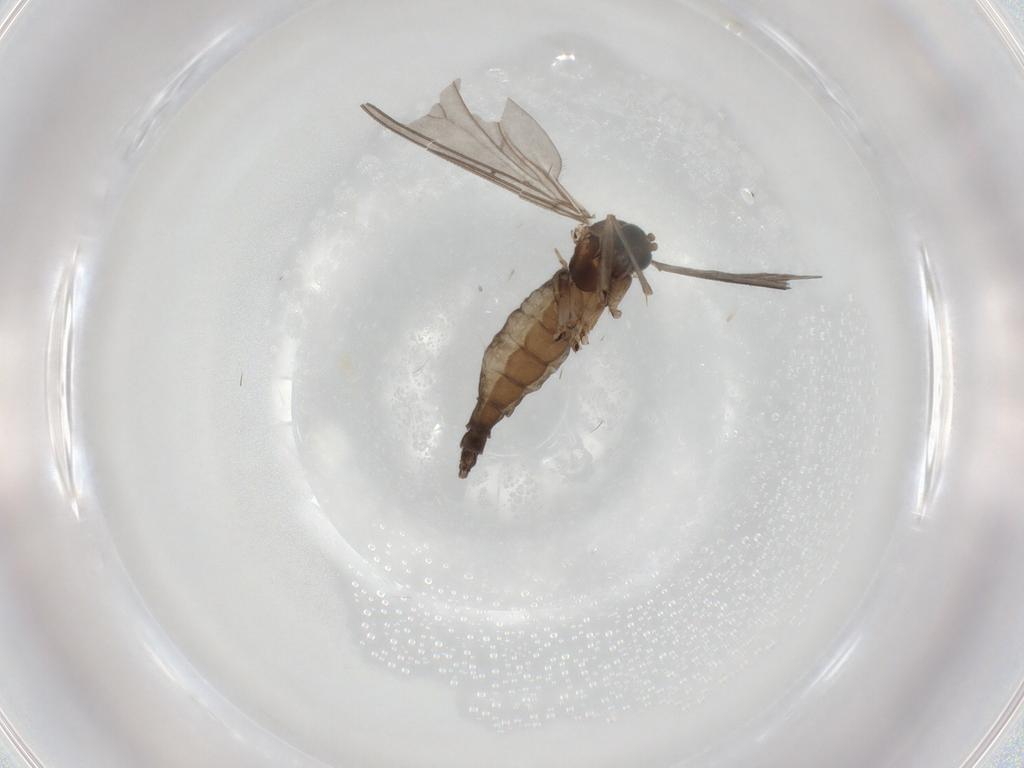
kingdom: Animalia
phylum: Arthropoda
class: Insecta
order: Diptera
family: Sciaridae
